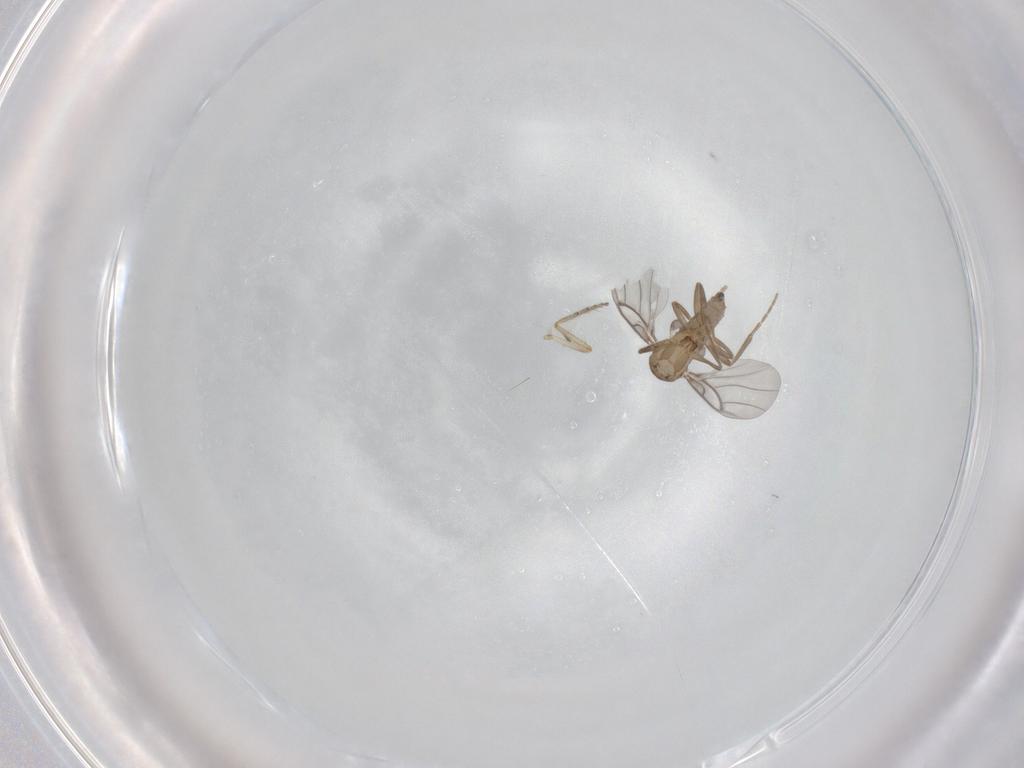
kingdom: Animalia
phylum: Arthropoda
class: Insecta
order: Diptera
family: Ceratopogonidae
